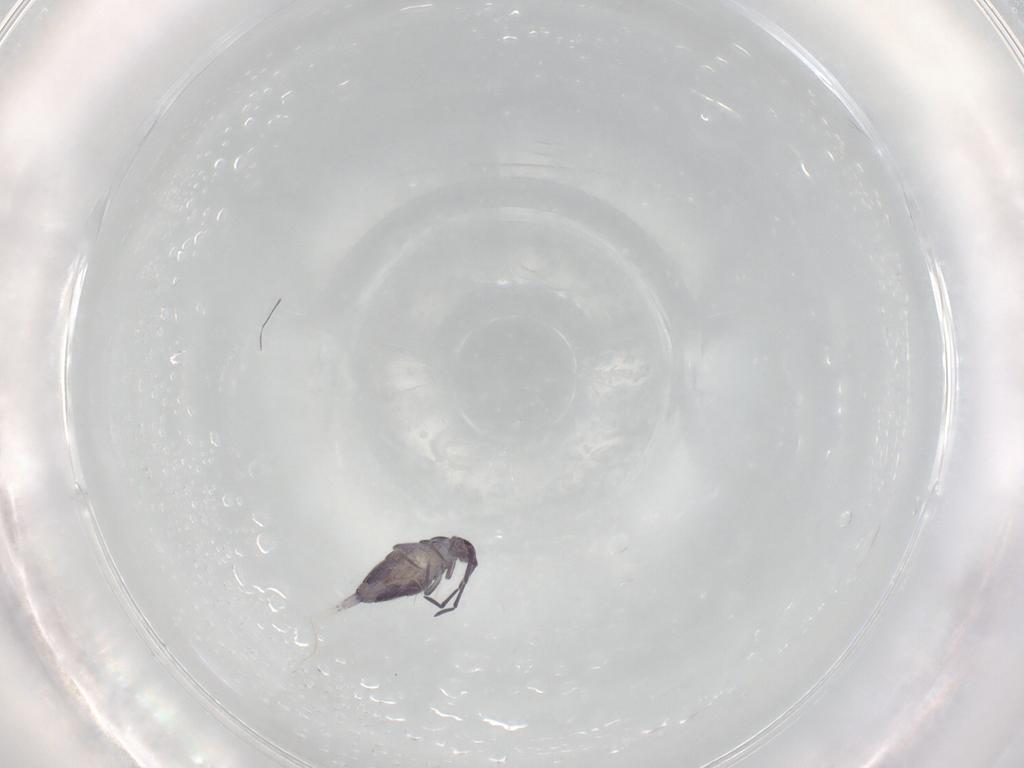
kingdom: Animalia
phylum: Arthropoda
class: Collembola
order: Entomobryomorpha
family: Entomobryidae
